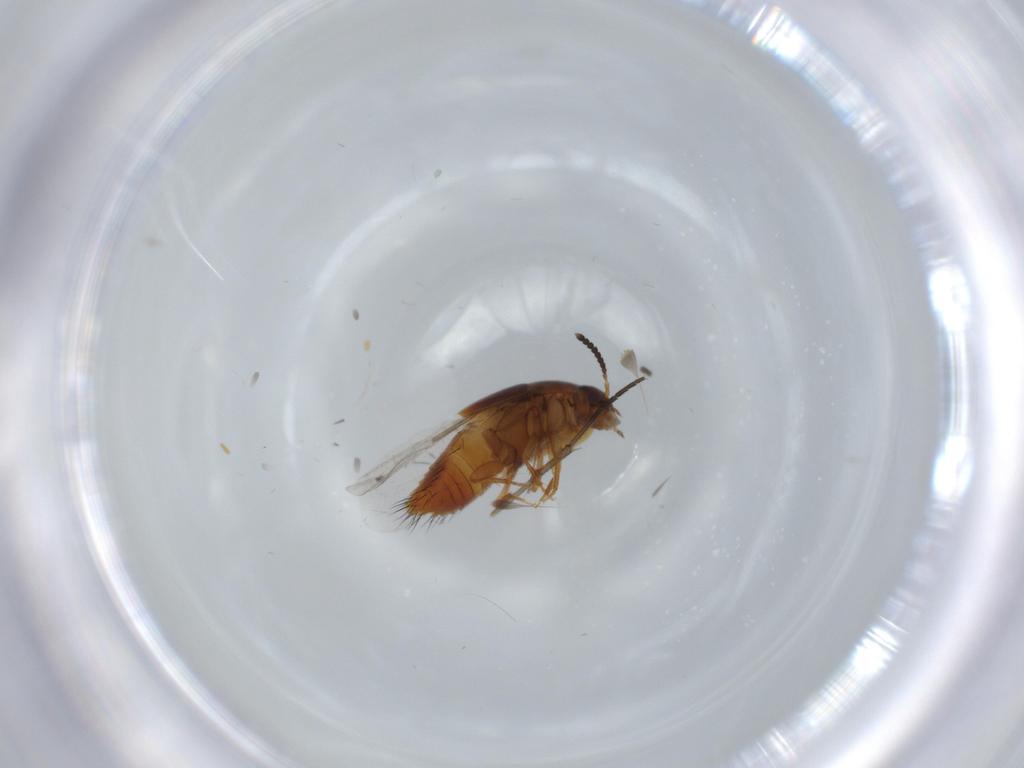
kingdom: Animalia
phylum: Arthropoda
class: Insecta
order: Coleoptera
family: Staphylinidae
